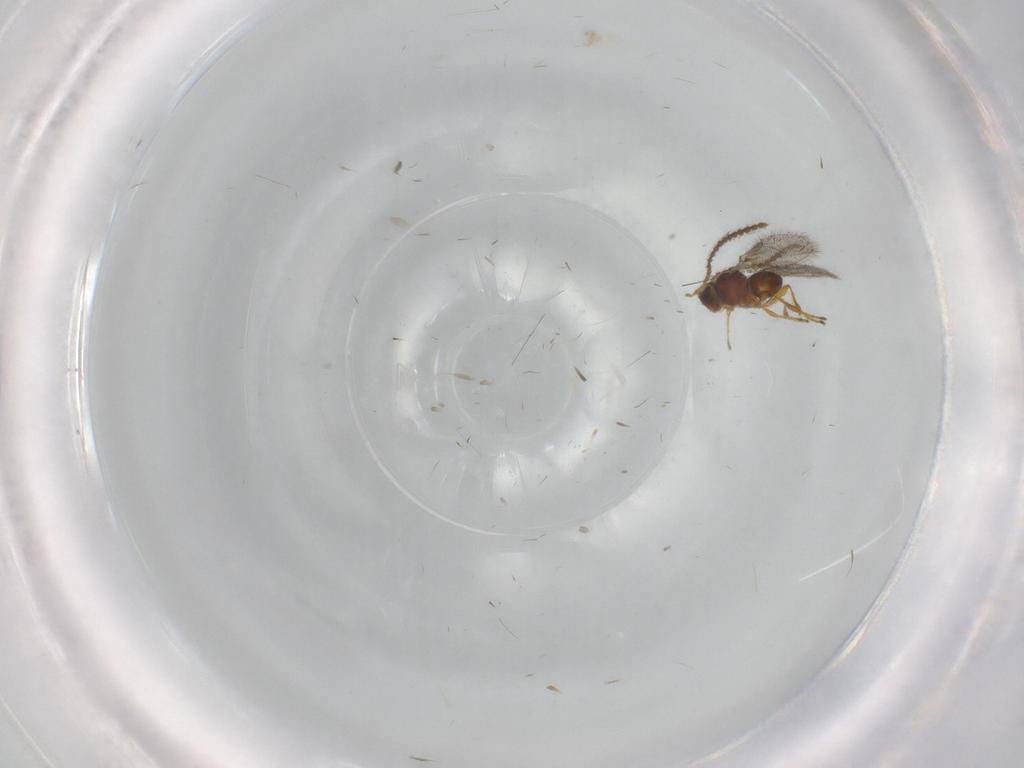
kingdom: Animalia
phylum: Arthropoda
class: Insecta
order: Hymenoptera
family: Diapriidae
